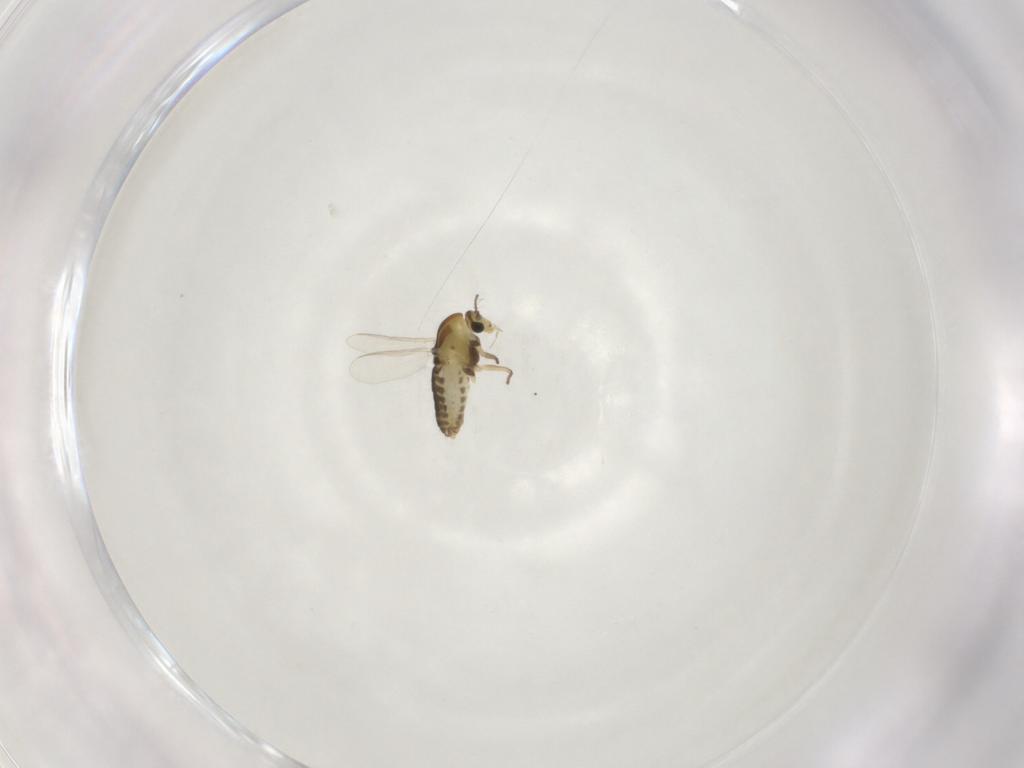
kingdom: Animalia
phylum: Arthropoda
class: Insecta
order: Diptera
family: Chironomidae
